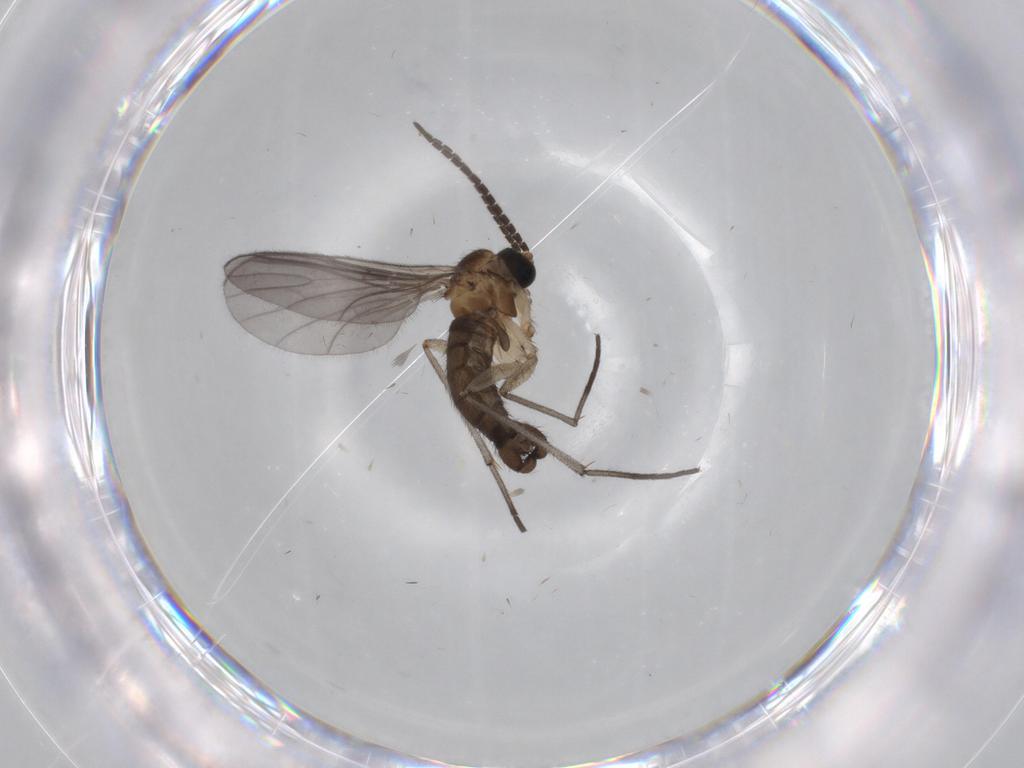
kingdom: Animalia
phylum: Arthropoda
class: Insecta
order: Diptera
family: Sciaridae
